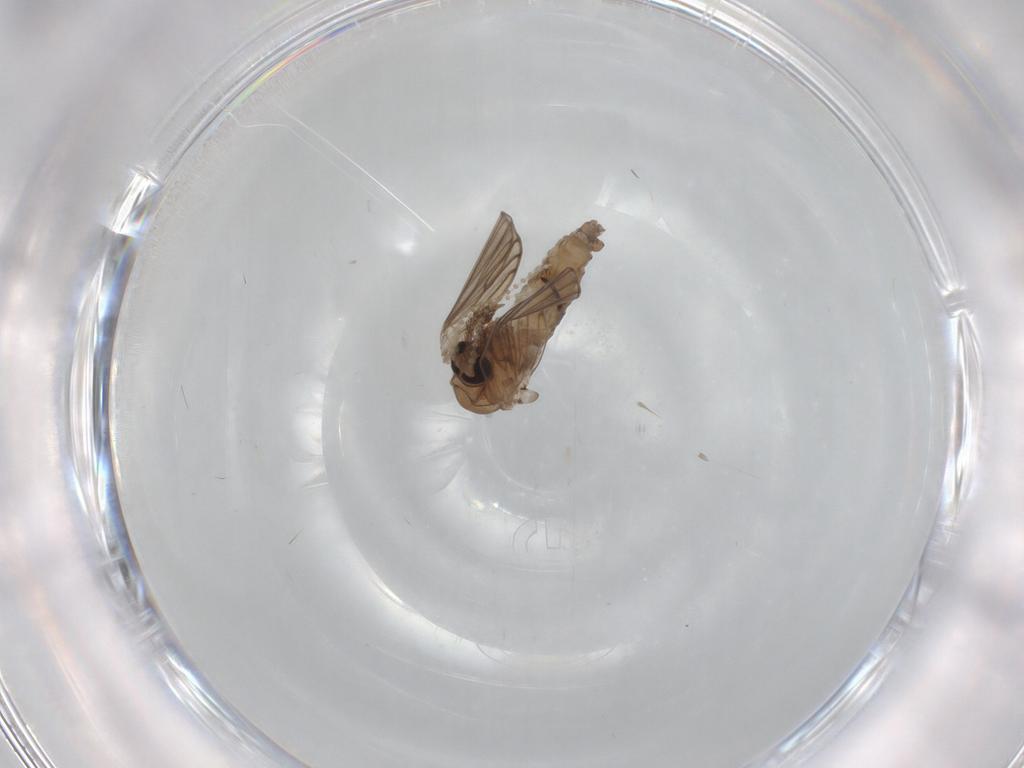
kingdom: Animalia
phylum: Arthropoda
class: Insecta
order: Diptera
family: Psychodidae
